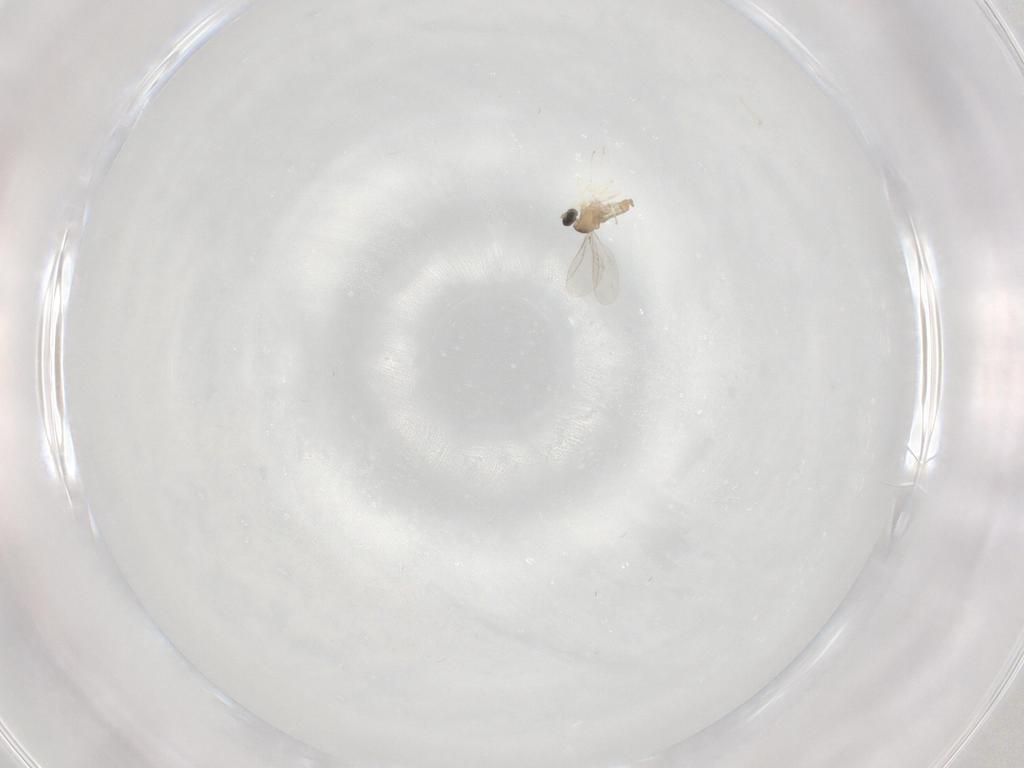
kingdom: Animalia
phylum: Arthropoda
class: Insecta
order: Diptera
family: Cecidomyiidae
